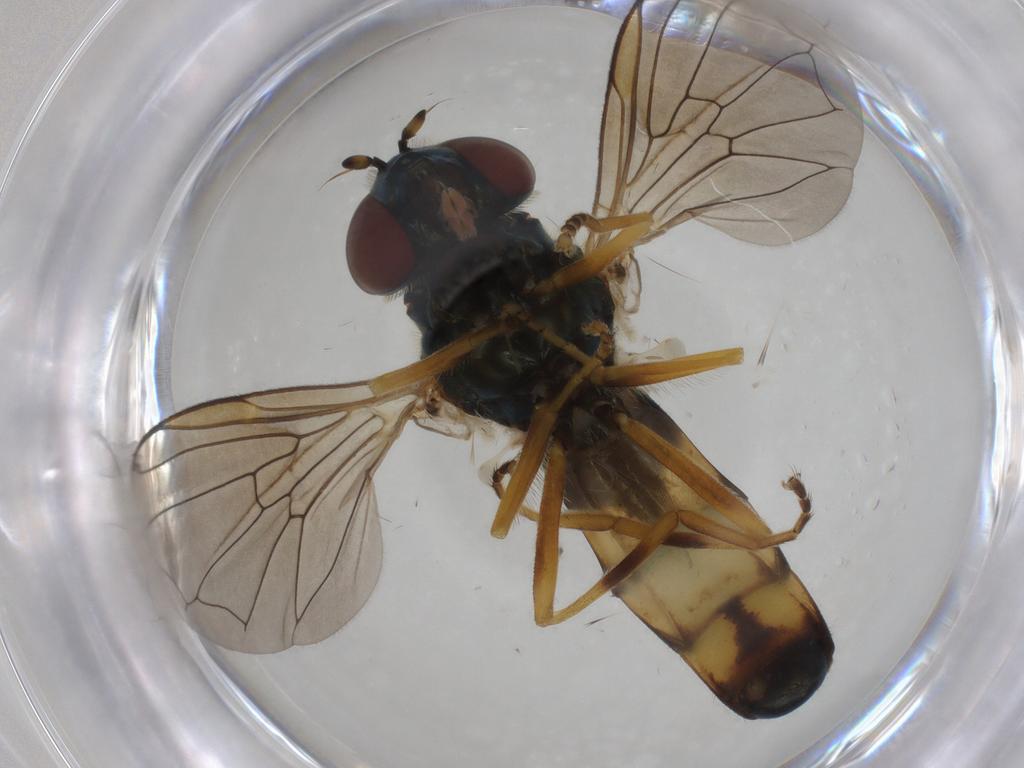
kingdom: Animalia
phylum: Arthropoda
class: Insecta
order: Diptera
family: Syrphidae
